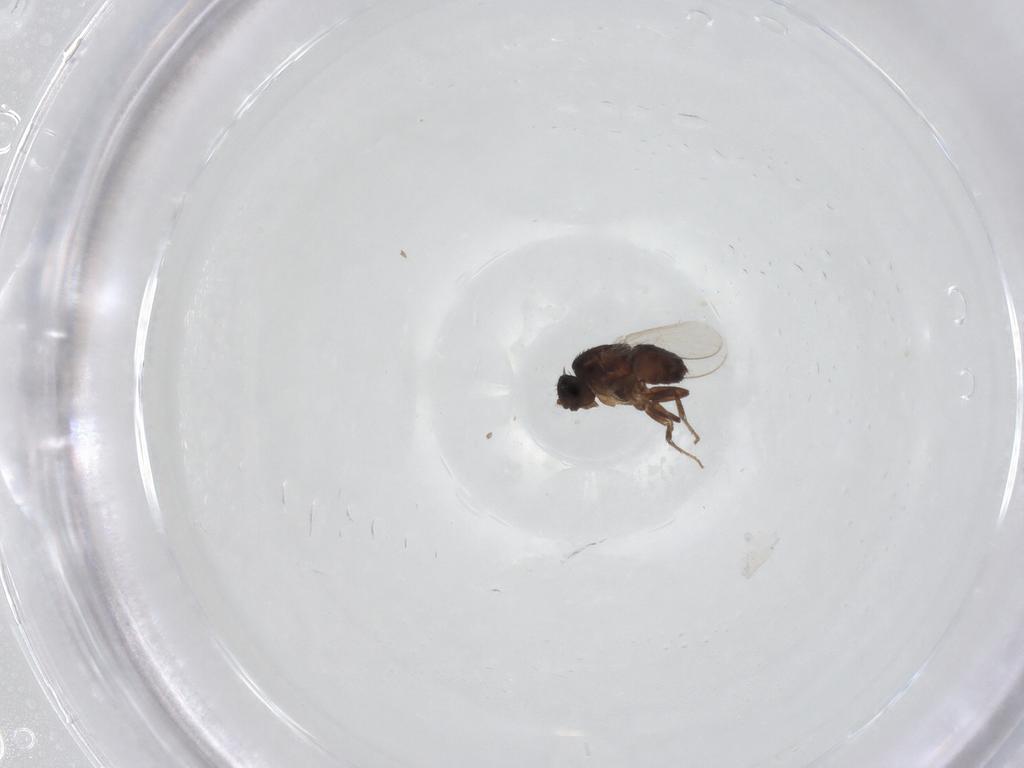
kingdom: Animalia
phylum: Arthropoda
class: Insecta
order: Diptera
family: Sphaeroceridae
